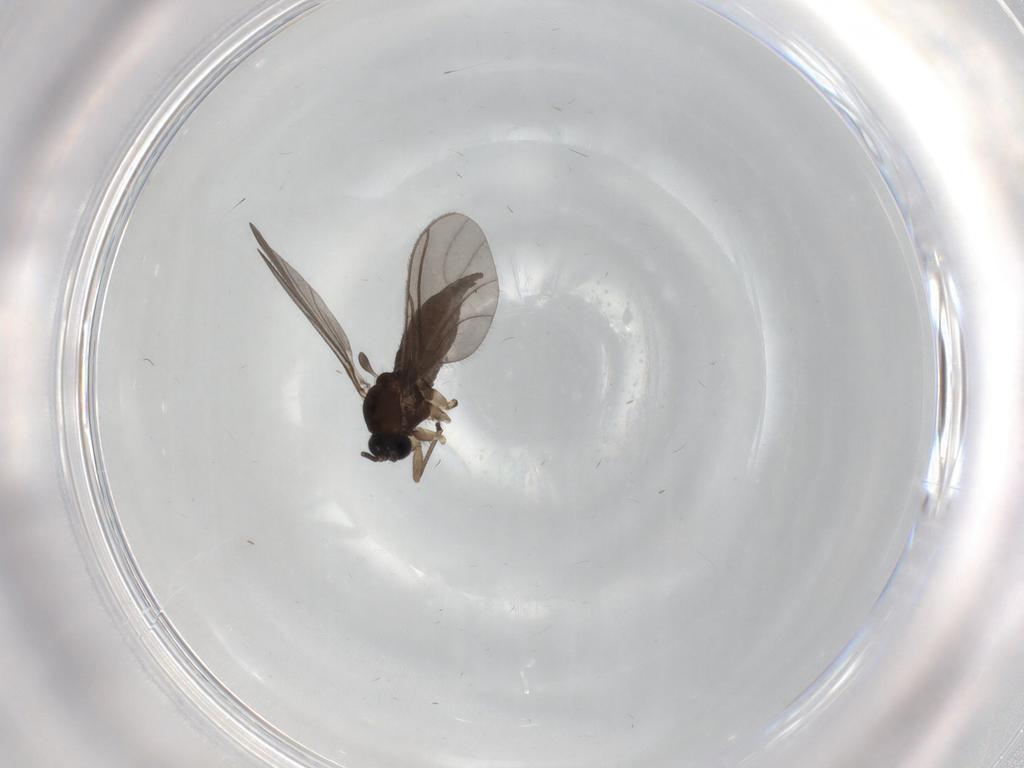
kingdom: Animalia
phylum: Arthropoda
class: Insecta
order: Diptera
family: Sciaridae
